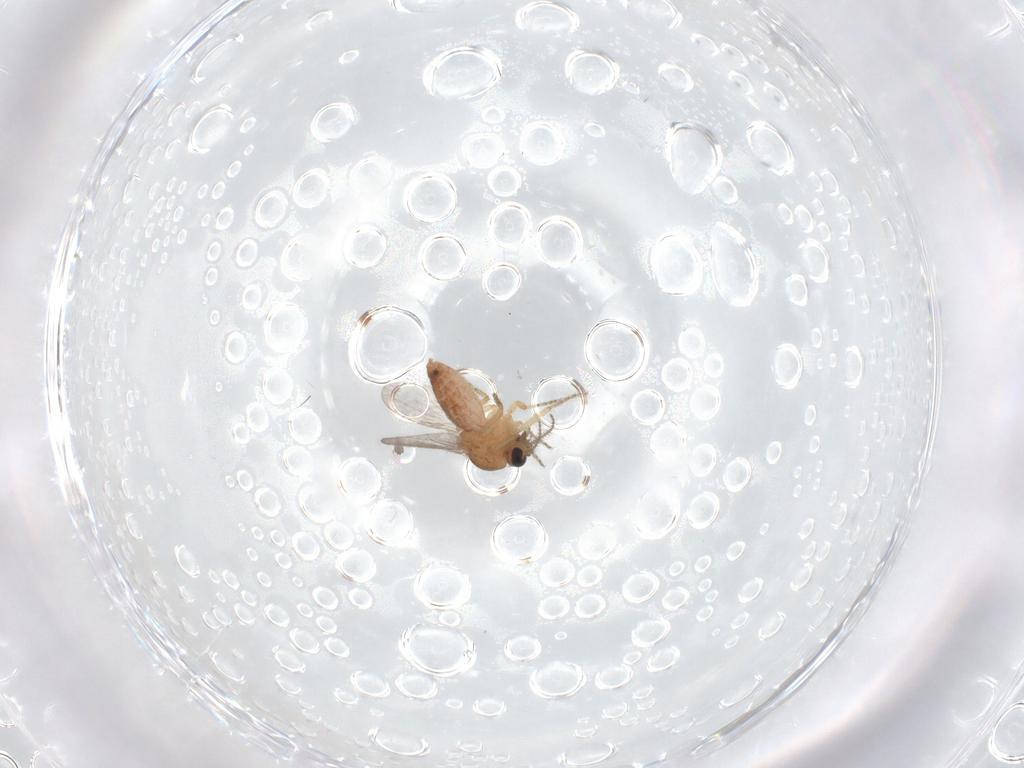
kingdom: Animalia
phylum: Arthropoda
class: Insecta
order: Diptera
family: Ceratopogonidae
